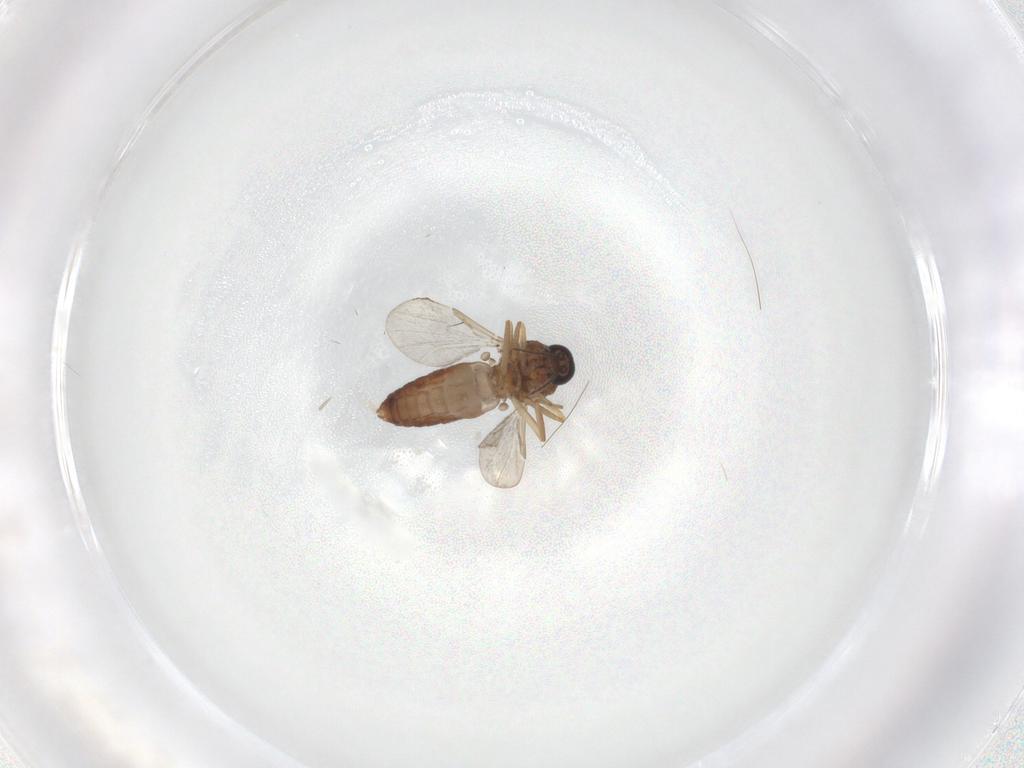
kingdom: Animalia
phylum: Arthropoda
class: Insecta
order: Diptera
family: Ceratopogonidae
